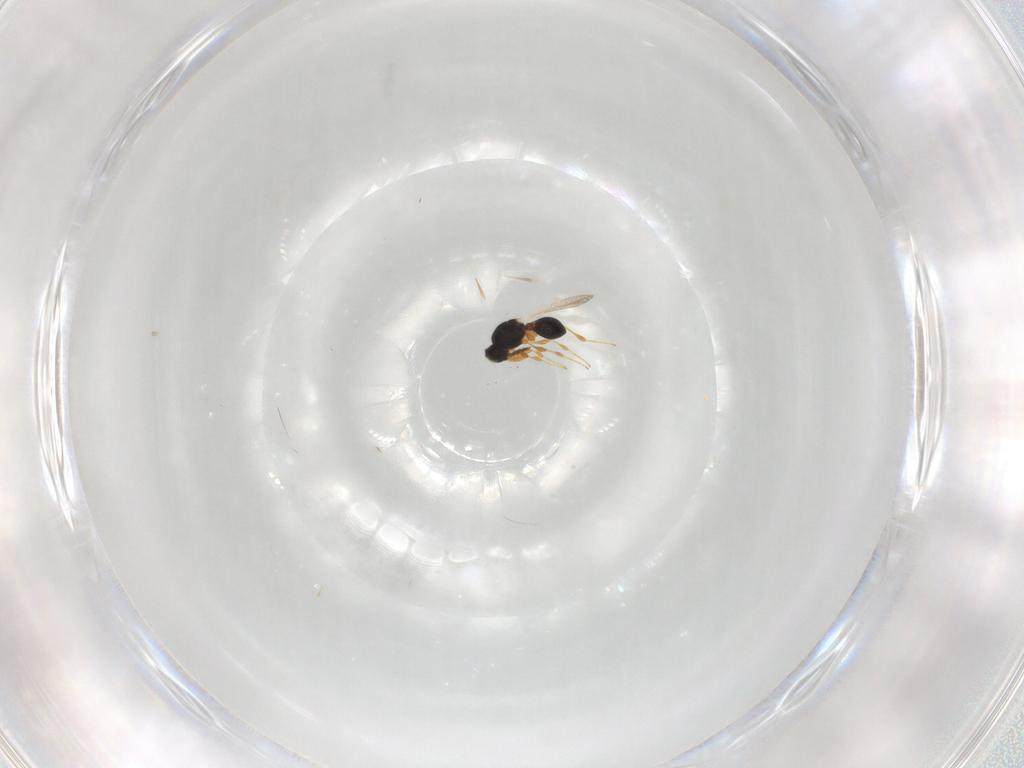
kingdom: Animalia
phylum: Arthropoda
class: Insecta
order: Hymenoptera
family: Platygastridae
